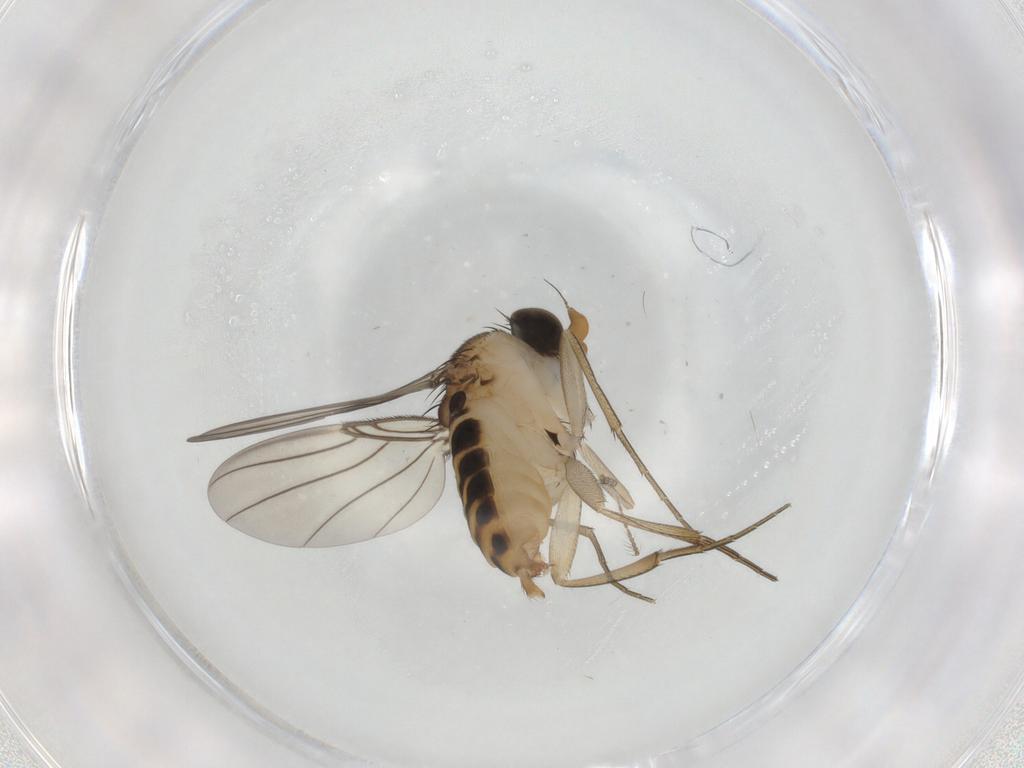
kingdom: Animalia
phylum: Arthropoda
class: Insecta
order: Diptera
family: Phoridae
